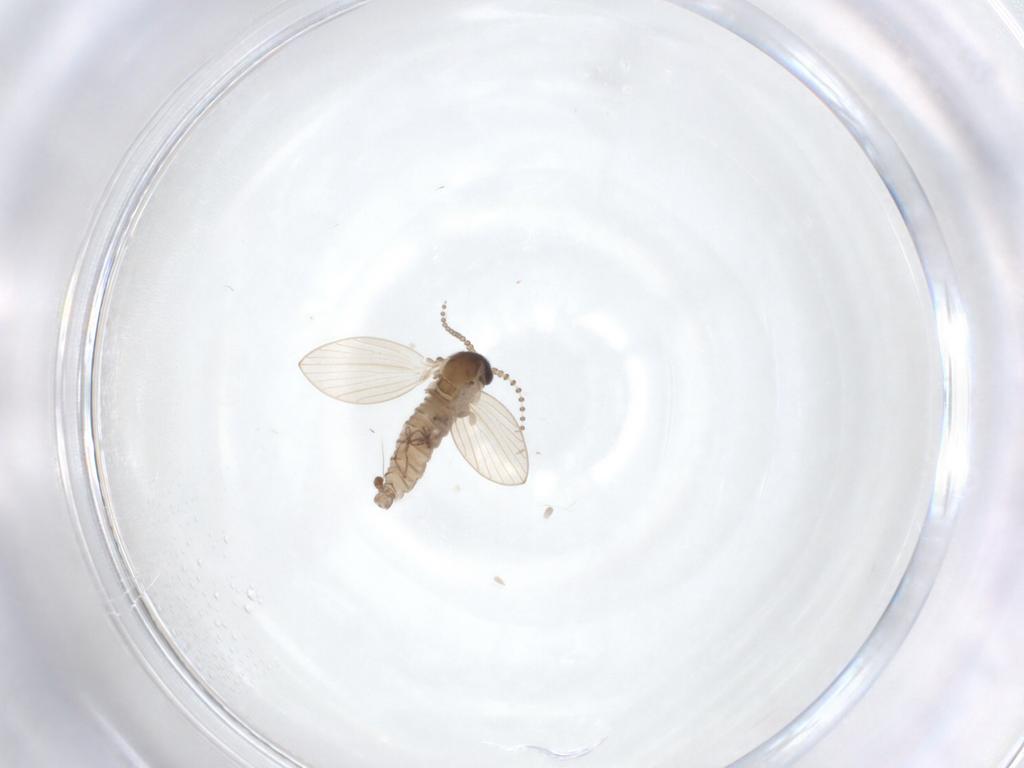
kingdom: Animalia
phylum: Arthropoda
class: Insecta
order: Diptera
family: Psychodidae
